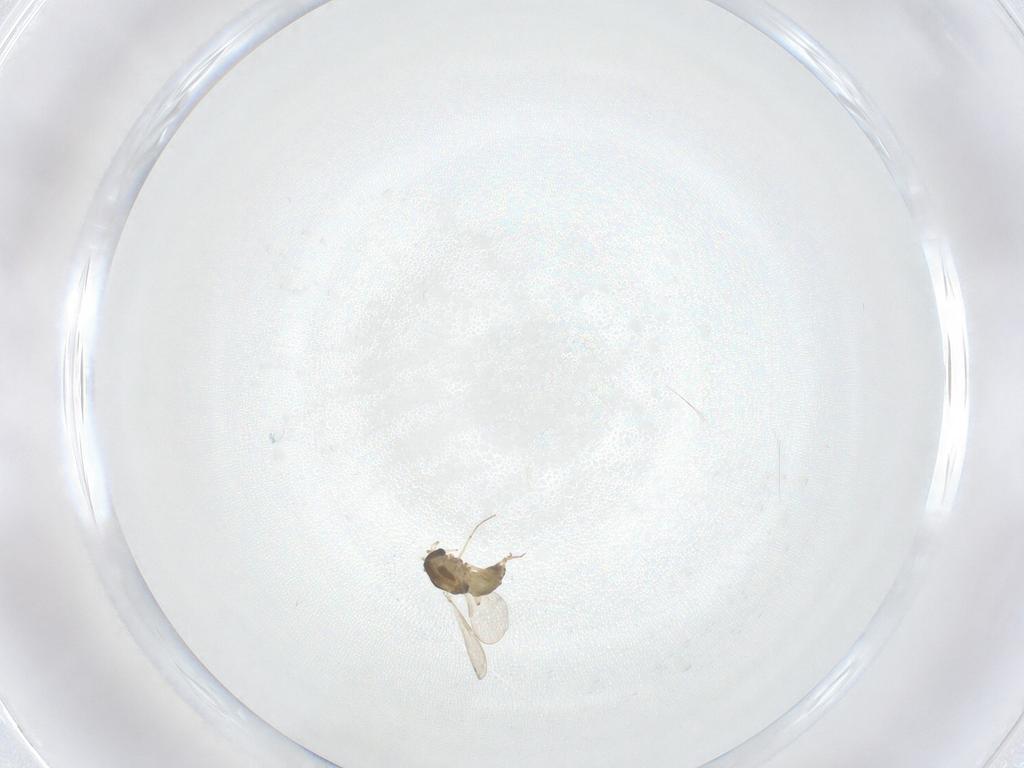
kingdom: Animalia
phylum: Arthropoda
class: Insecta
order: Diptera
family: Chironomidae
